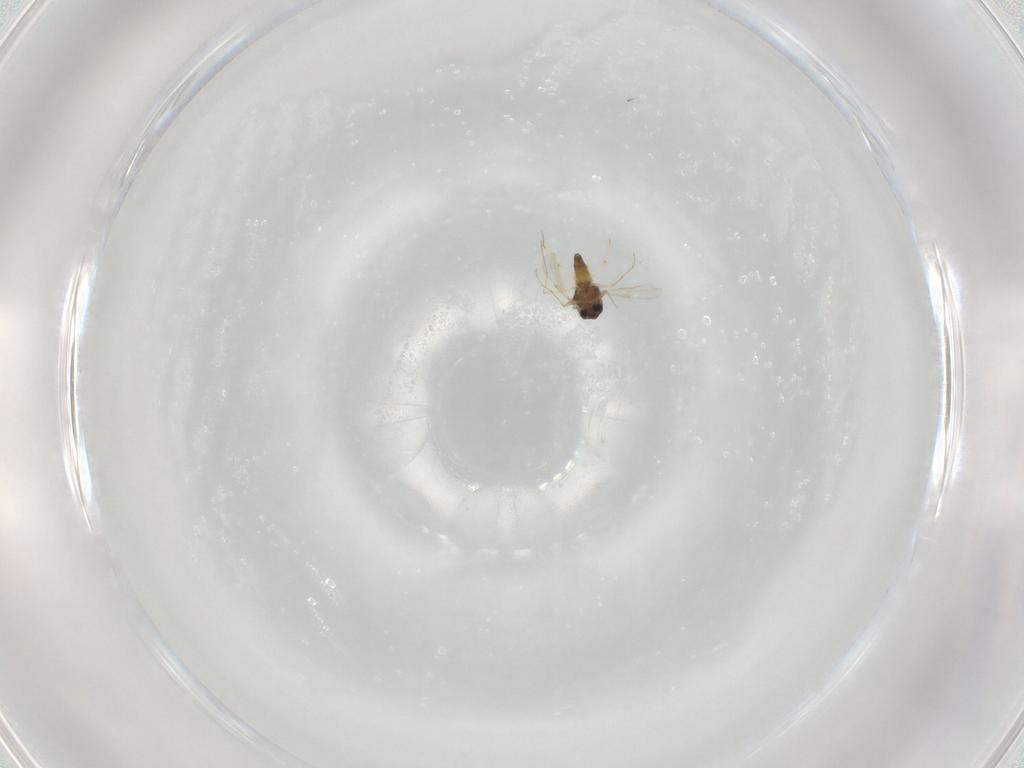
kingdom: Animalia
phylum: Arthropoda
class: Insecta
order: Diptera
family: Chironomidae
